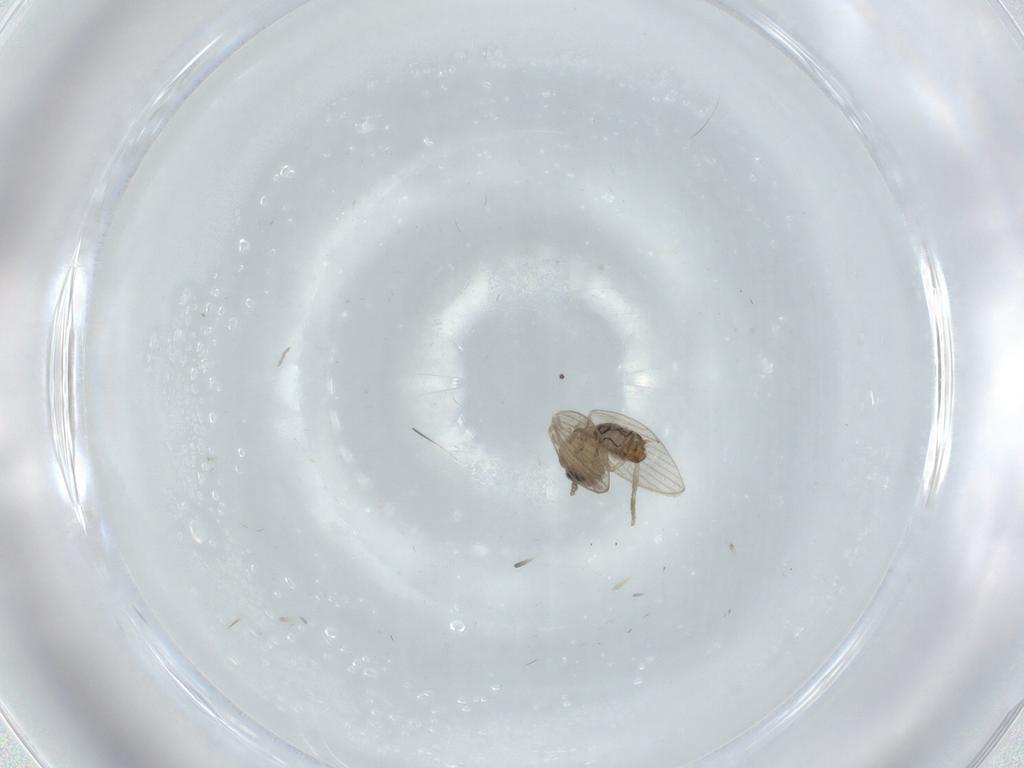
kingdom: Animalia
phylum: Arthropoda
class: Insecta
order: Diptera
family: Psychodidae
